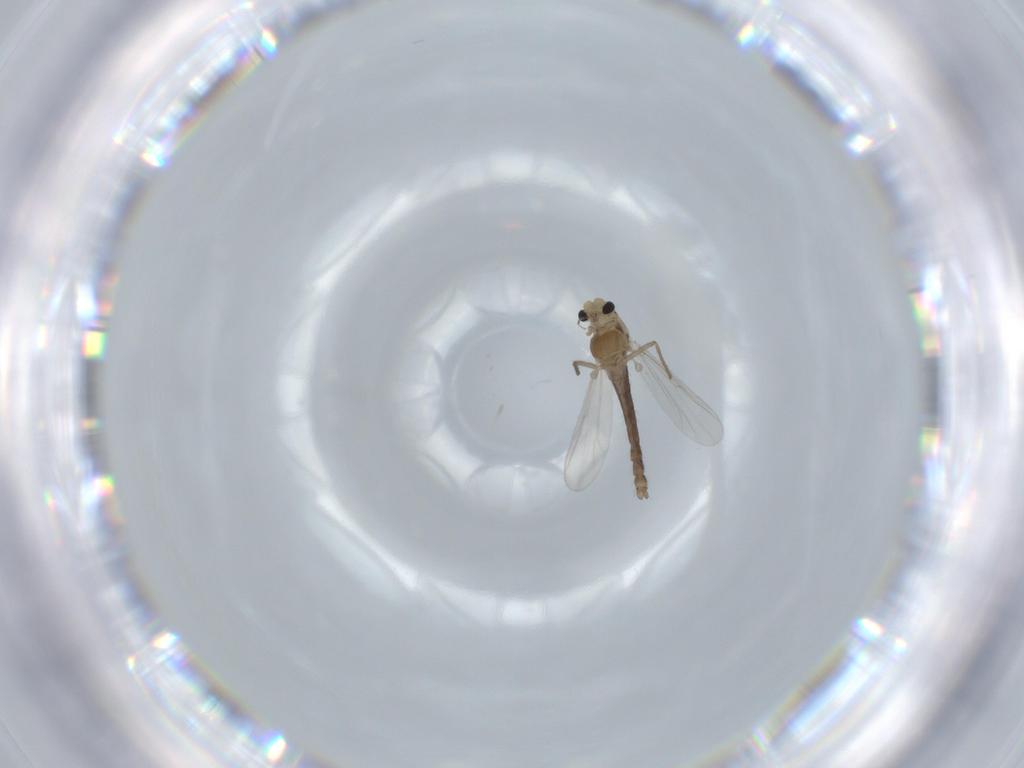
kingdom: Animalia
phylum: Arthropoda
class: Insecta
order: Diptera
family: Chironomidae
